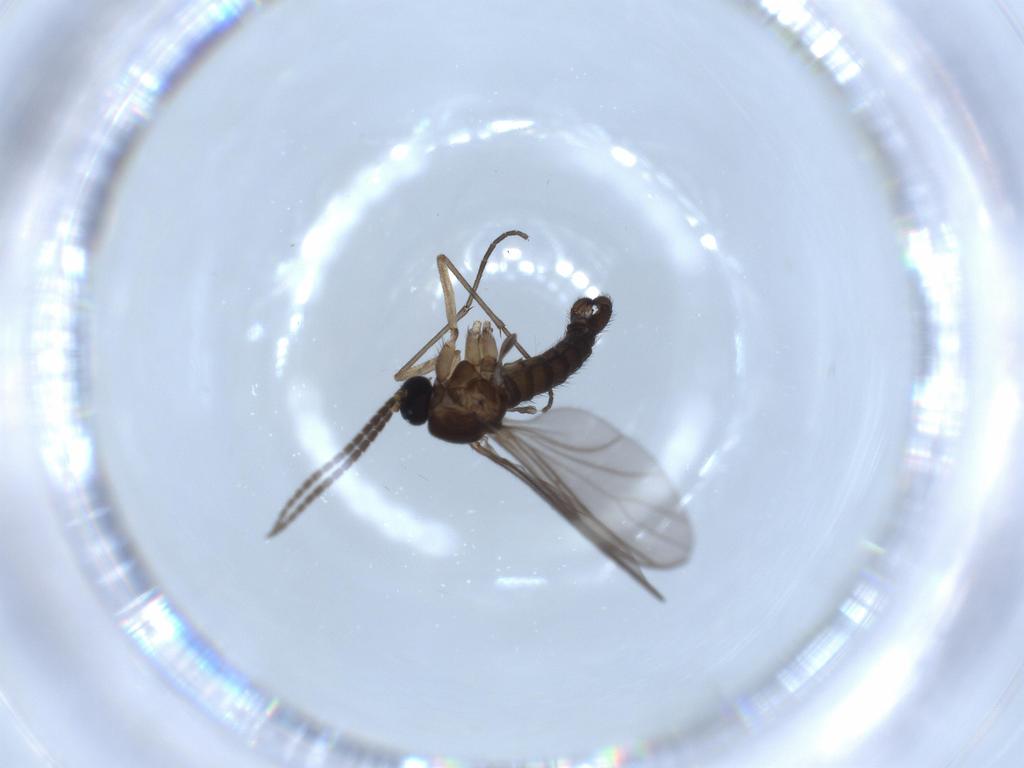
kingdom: Animalia
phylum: Arthropoda
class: Insecta
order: Diptera
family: Sciaridae
